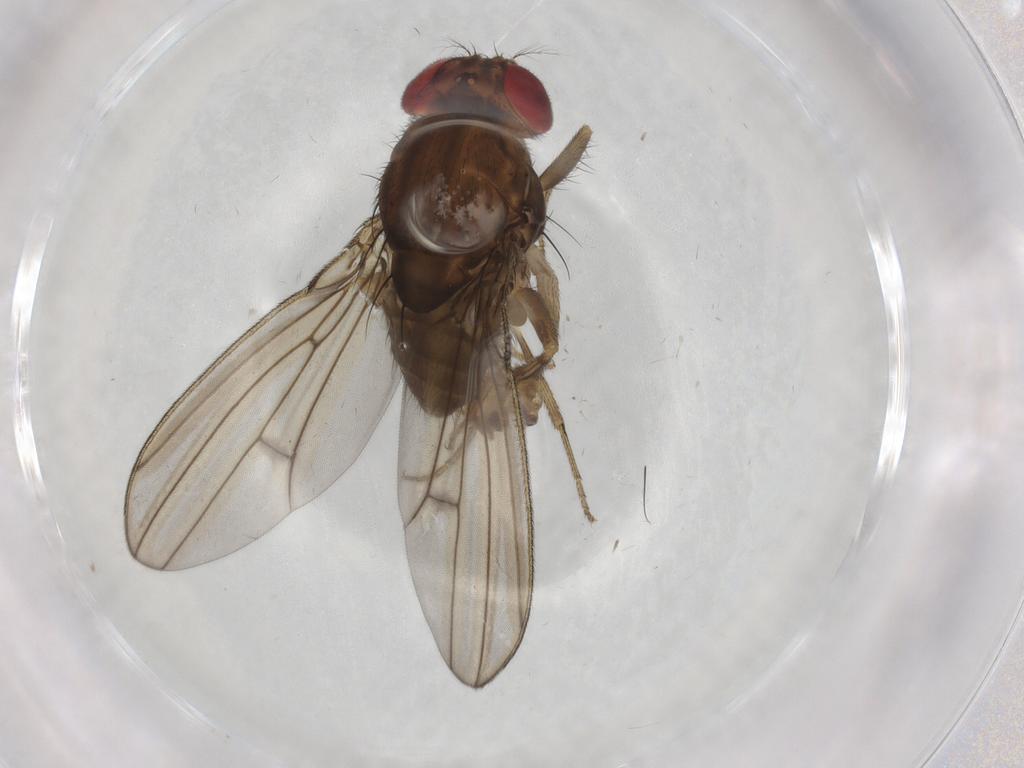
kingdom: Animalia
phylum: Arthropoda
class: Insecta
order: Diptera
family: Drosophilidae
